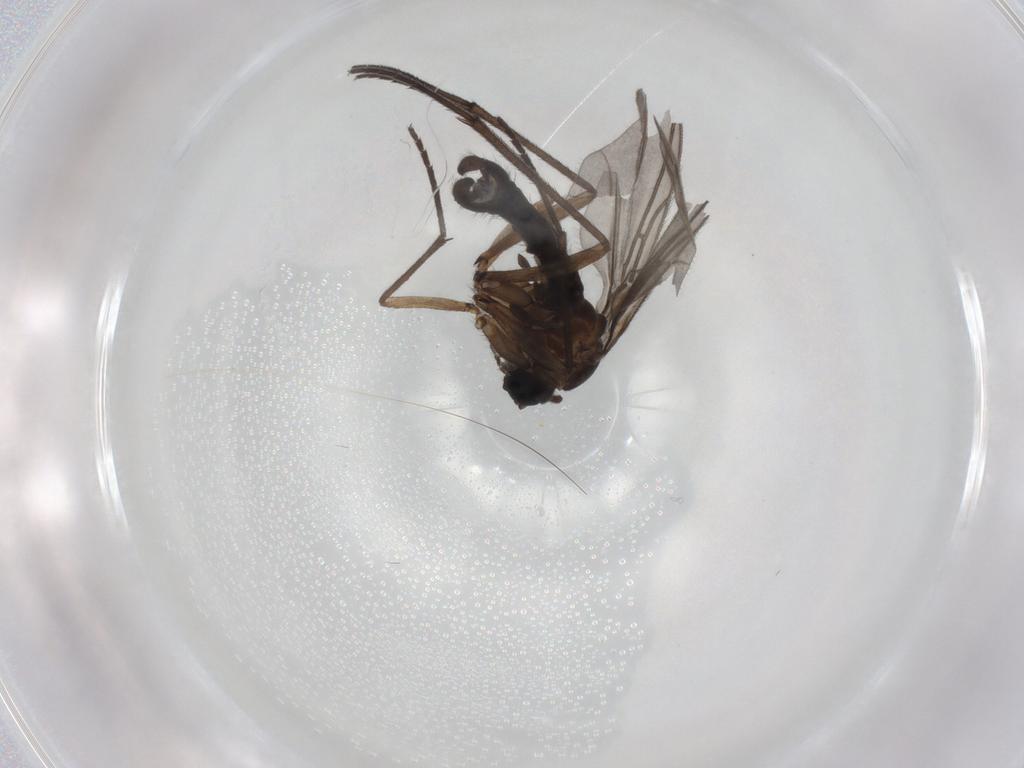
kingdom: Animalia
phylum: Arthropoda
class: Insecta
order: Diptera
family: Sciaridae
